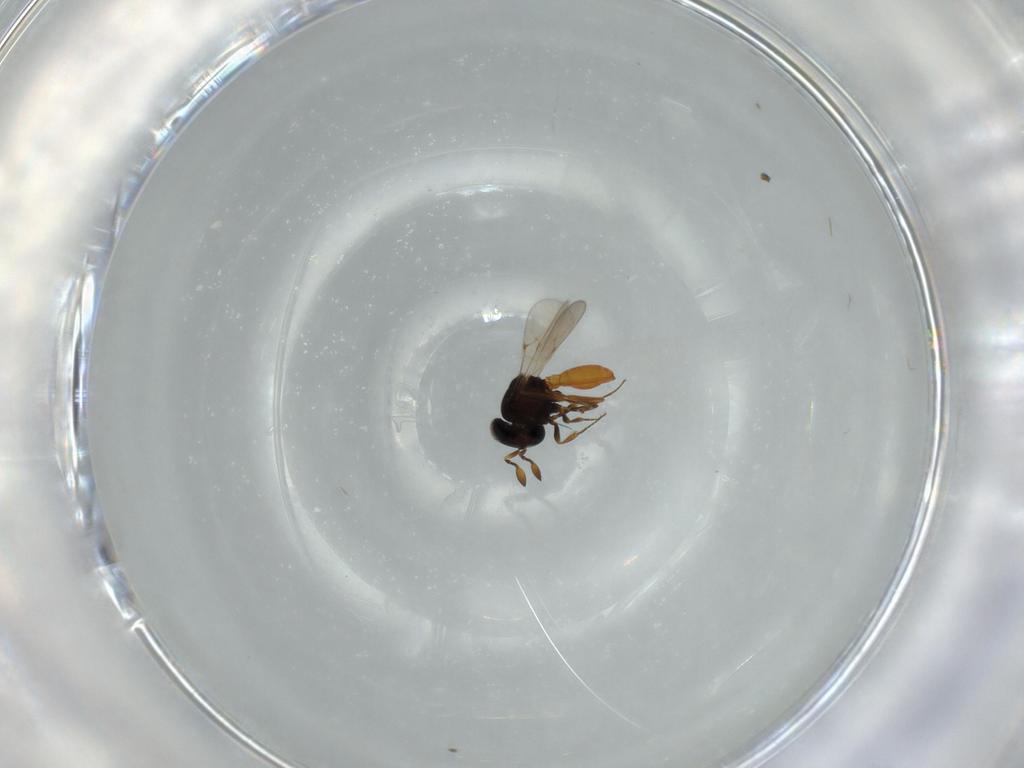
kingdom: Animalia
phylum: Arthropoda
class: Insecta
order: Hymenoptera
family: Scelionidae
